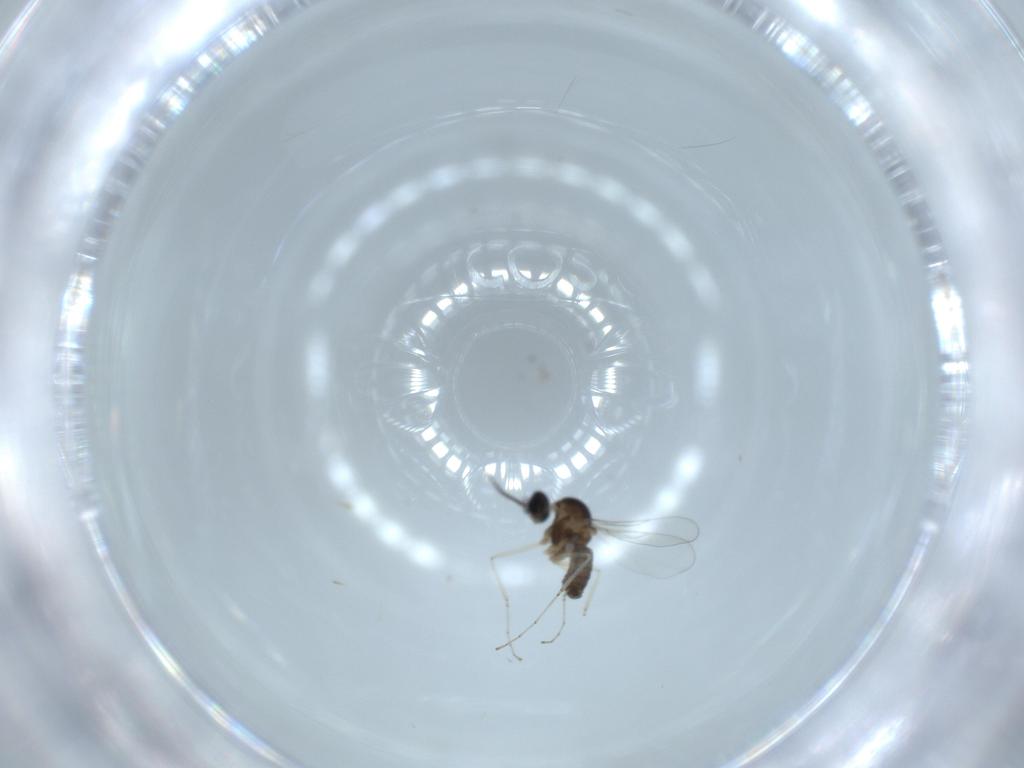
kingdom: Animalia
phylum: Arthropoda
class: Insecta
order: Diptera
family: Cecidomyiidae
